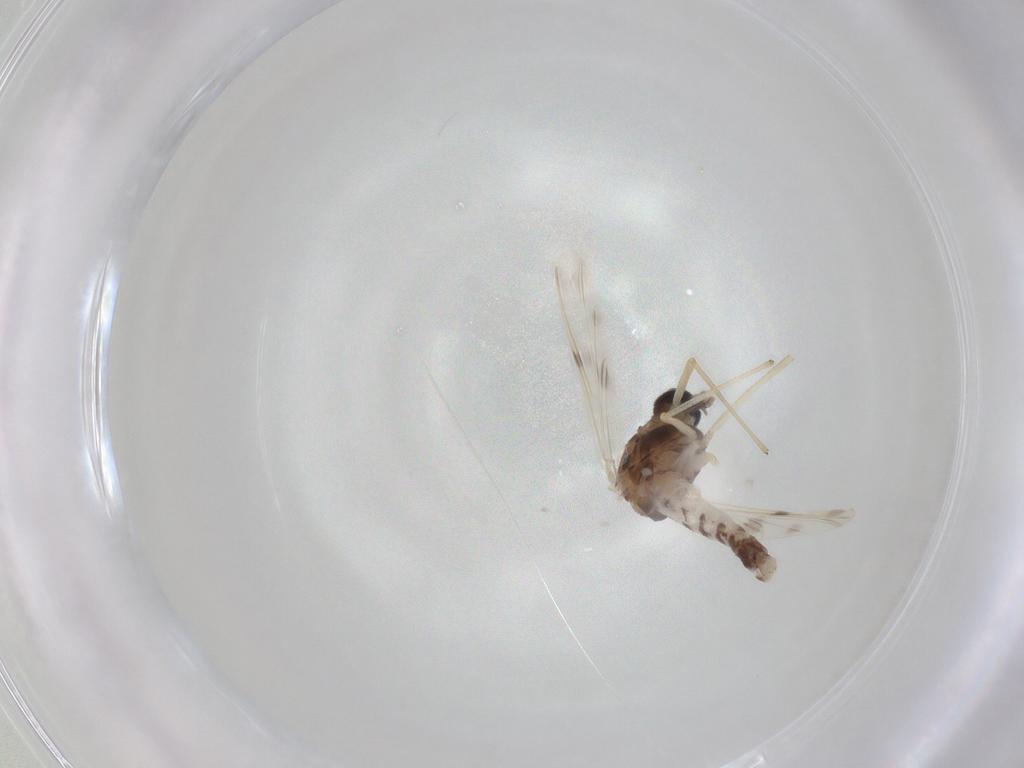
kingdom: Animalia
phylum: Arthropoda
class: Insecta
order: Diptera
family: Chironomidae
